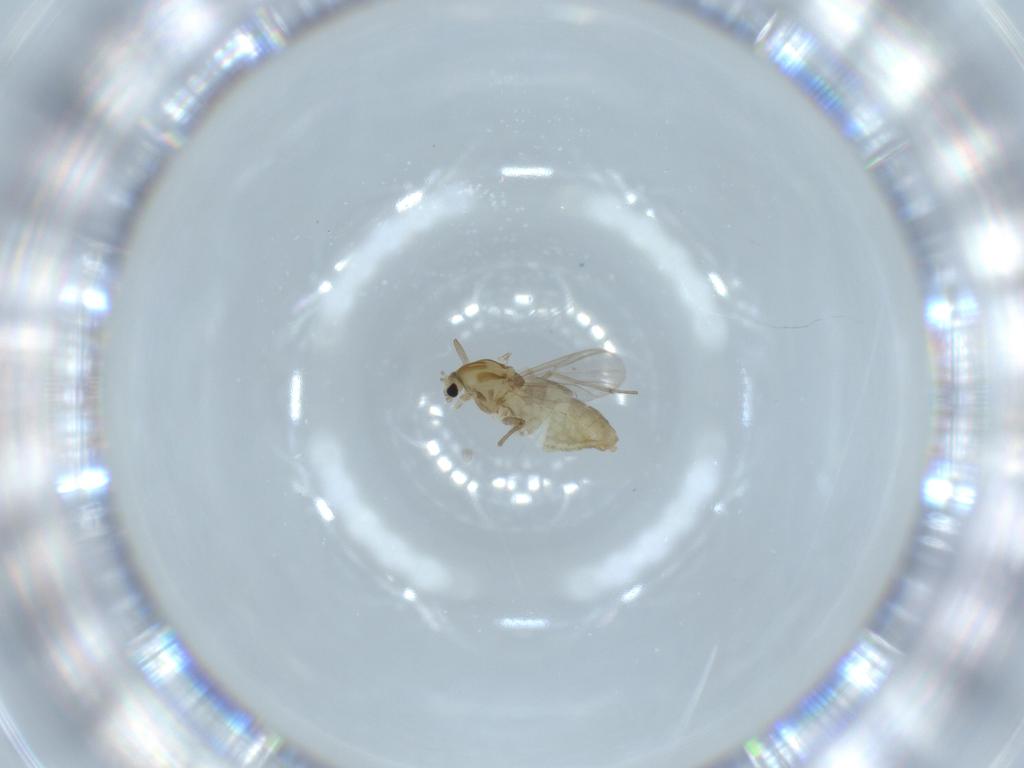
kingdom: Animalia
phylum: Arthropoda
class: Insecta
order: Diptera
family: Chironomidae
